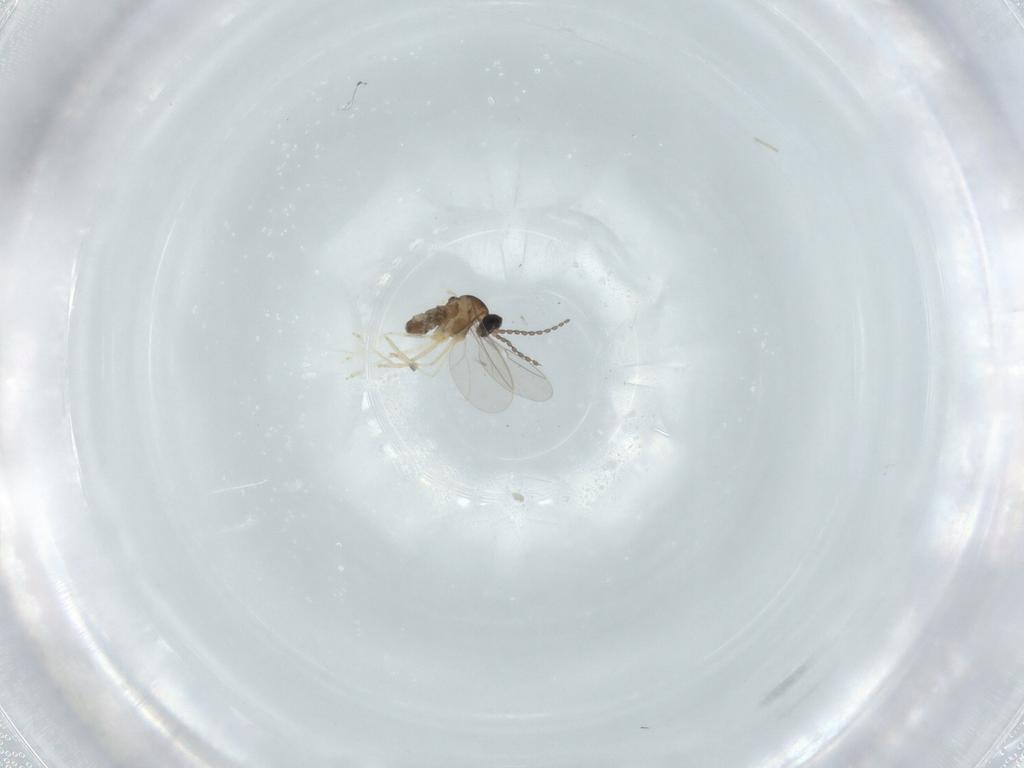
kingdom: Animalia
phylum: Arthropoda
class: Insecta
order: Diptera
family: Cecidomyiidae
